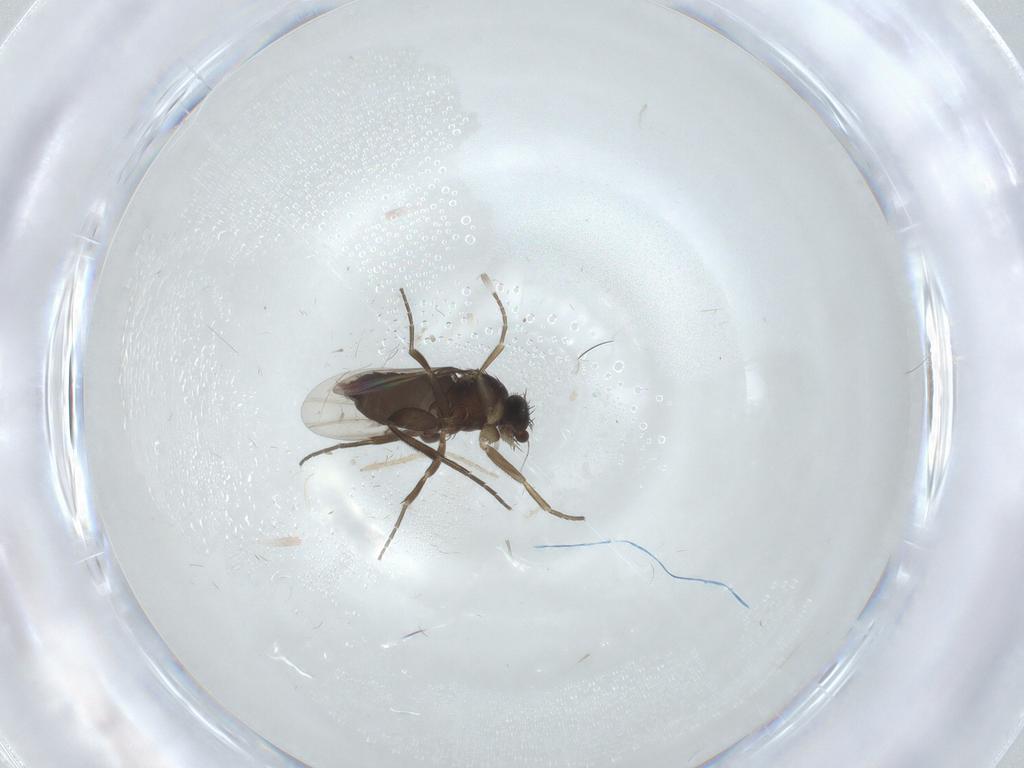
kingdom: Animalia
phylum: Arthropoda
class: Insecta
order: Diptera
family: Phoridae
